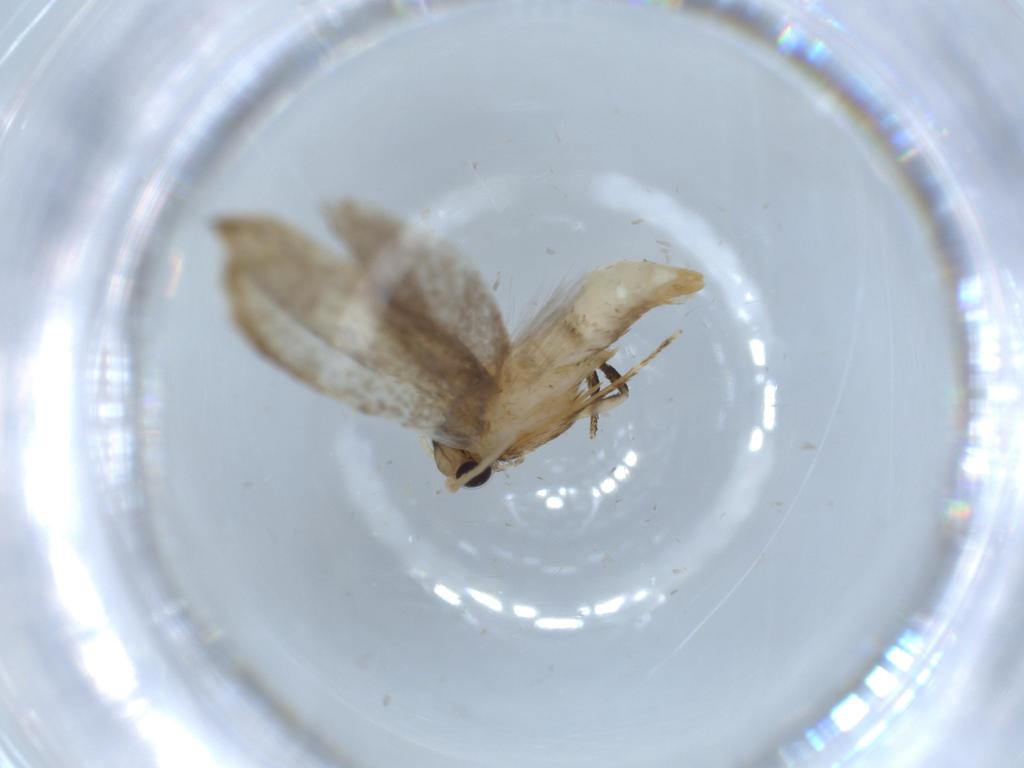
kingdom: Animalia
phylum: Arthropoda
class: Insecta
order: Lepidoptera
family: Tineidae
